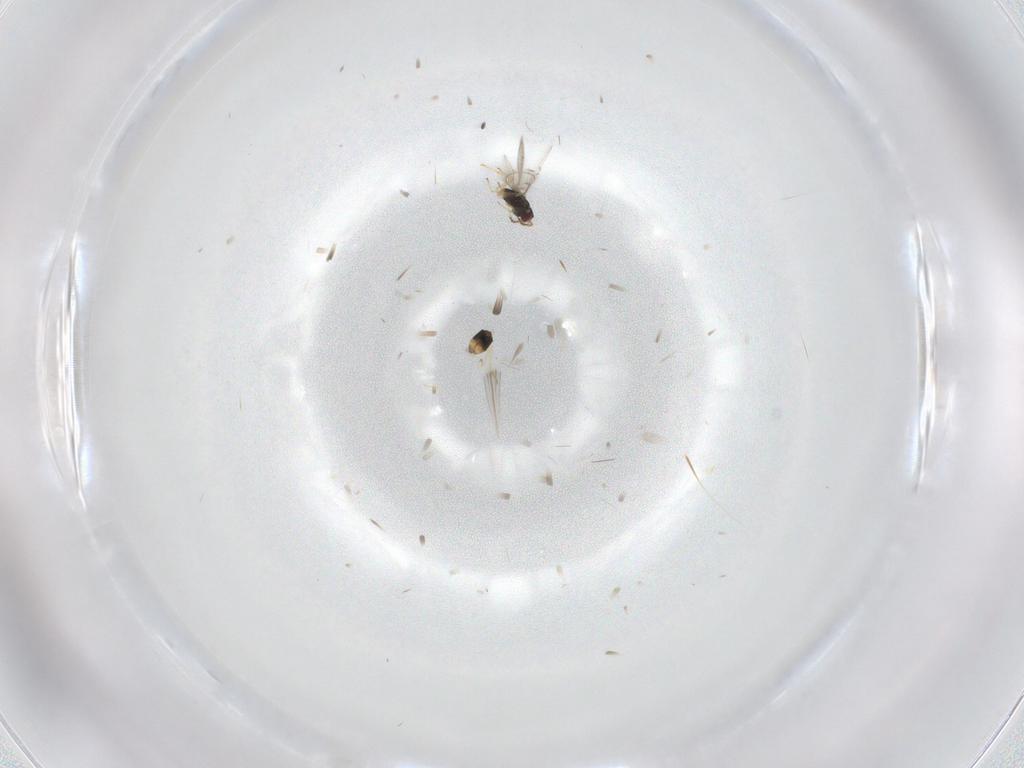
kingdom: Animalia
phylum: Arthropoda
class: Insecta
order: Hymenoptera
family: Eulophidae
